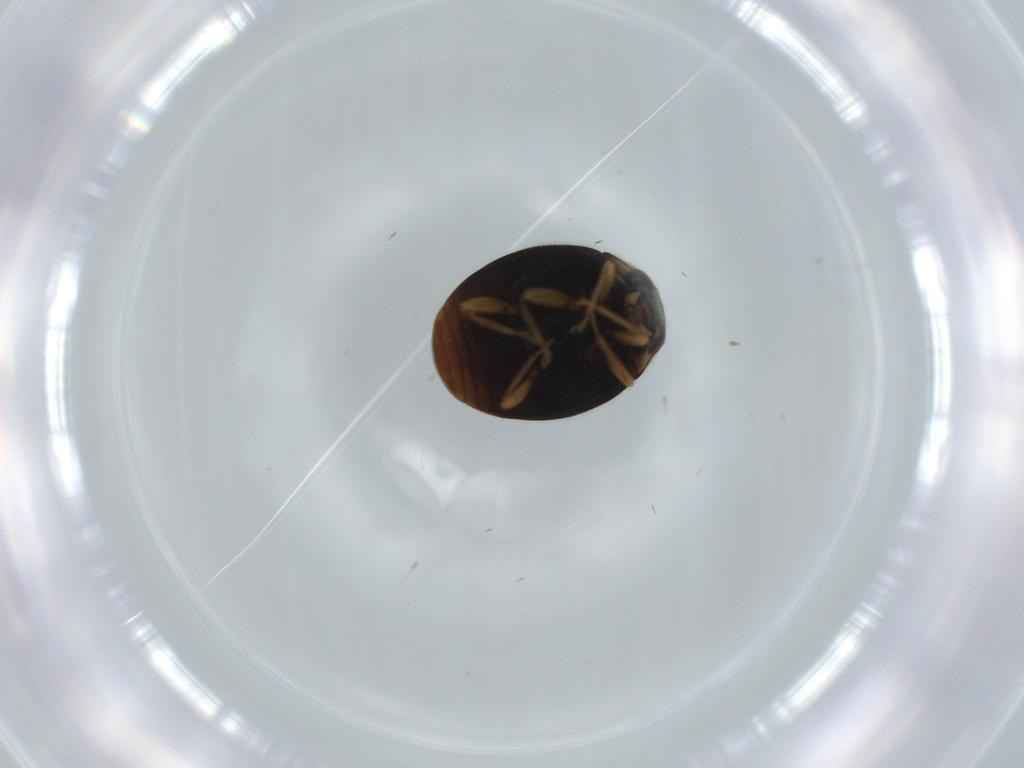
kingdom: Animalia
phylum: Arthropoda
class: Insecta
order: Coleoptera
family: Coccinellidae
